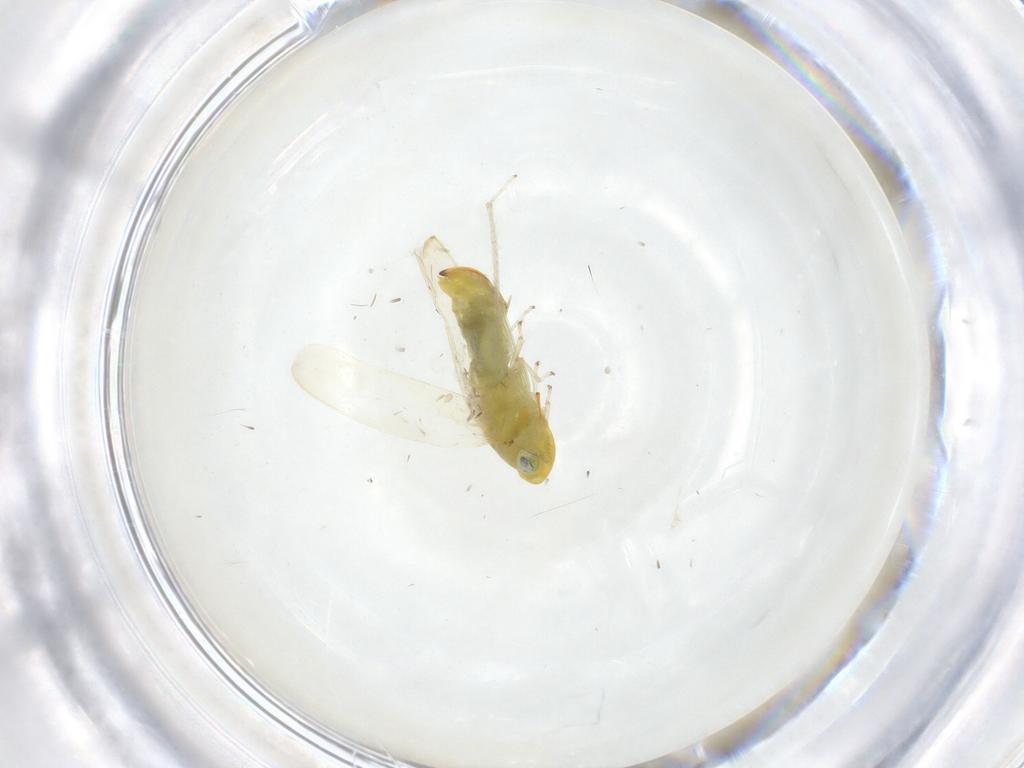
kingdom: Animalia
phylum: Arthropoda
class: Insecta
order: Hemiptera
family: Cicadellidae
